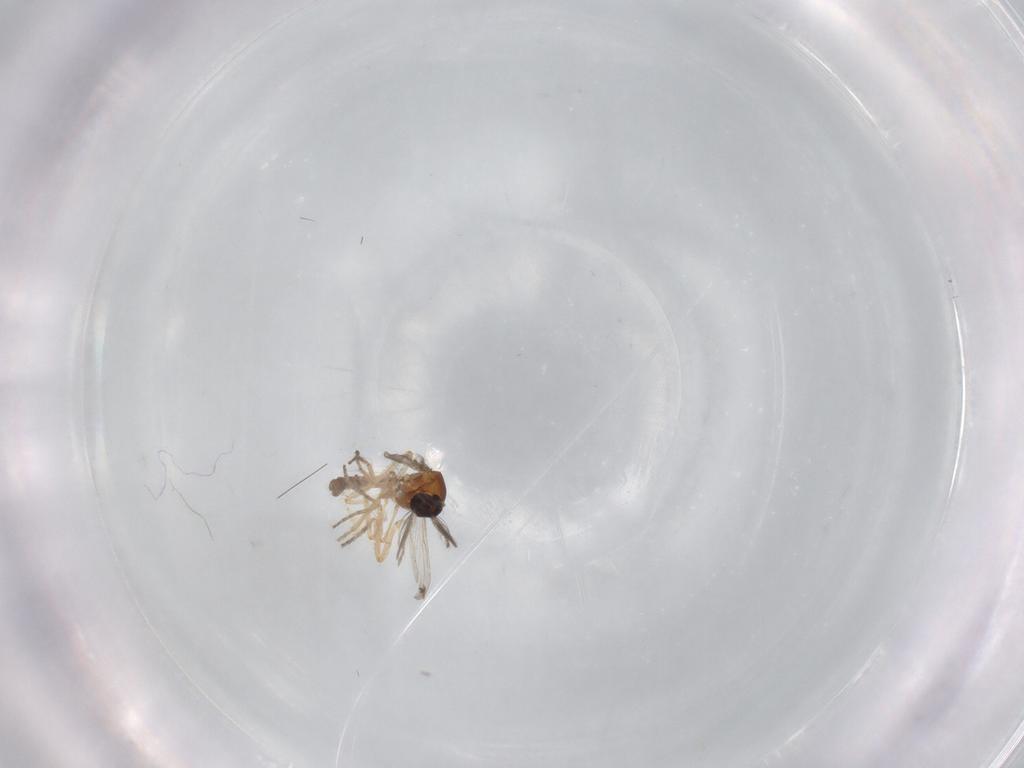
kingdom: Animalia
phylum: Arthropoda
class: Insecta
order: Diptera
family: Ceratopogonidae
